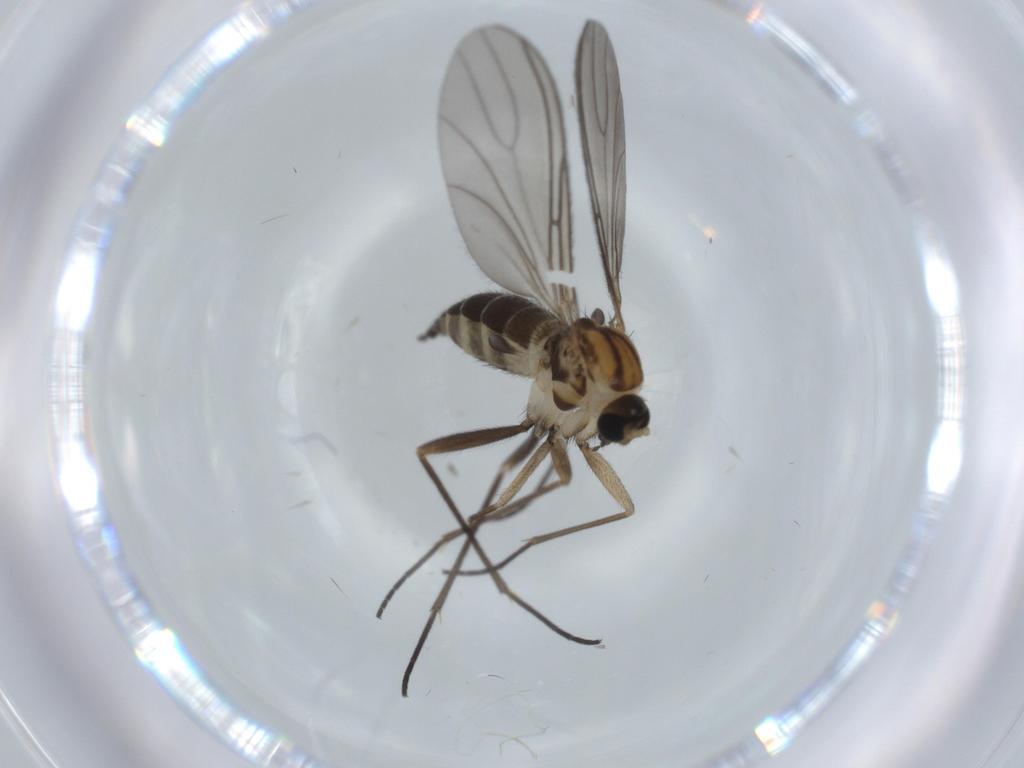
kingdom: Animalia
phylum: Arthropoda
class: Insecta
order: Diptera
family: Sciaridae
